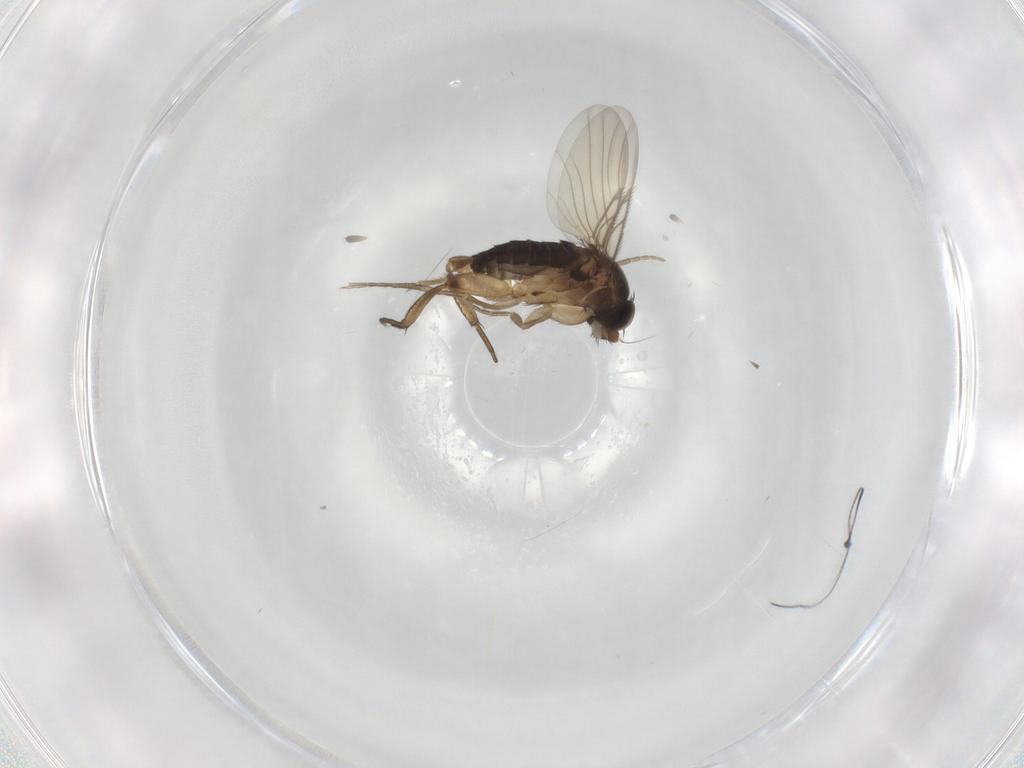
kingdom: Animalia
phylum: Arthropoda
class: Insecta
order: Diptera
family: Phoridae
